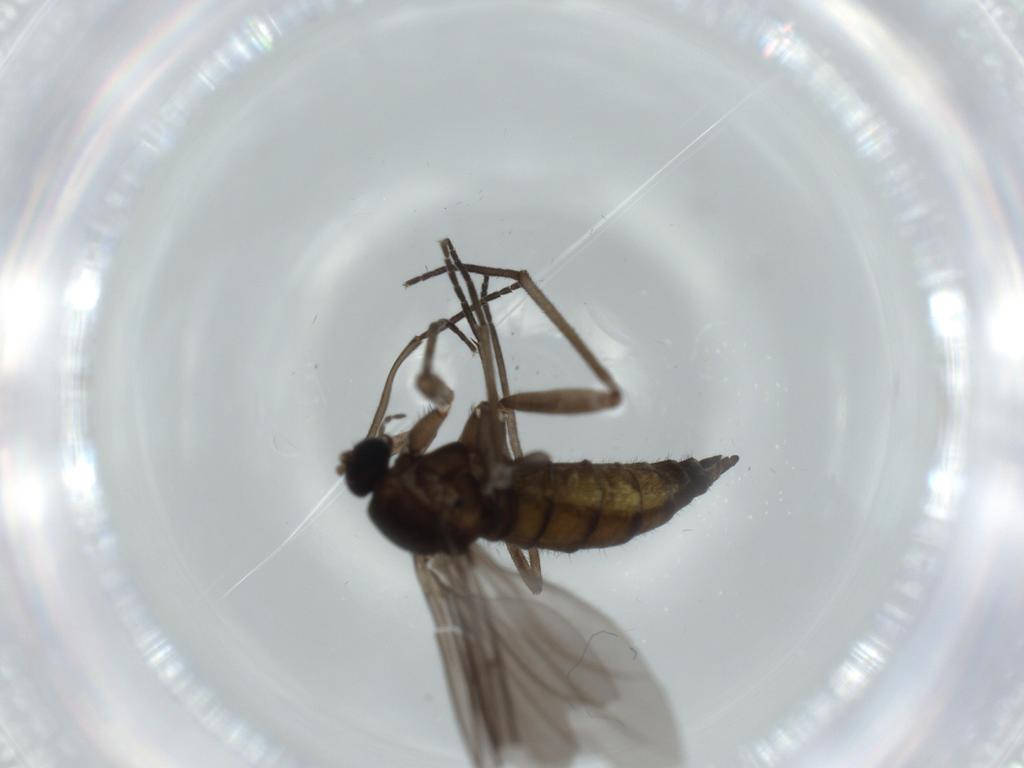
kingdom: Animalia
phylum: Arthropoda
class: Insecta
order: Diptera
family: Sciaridae
